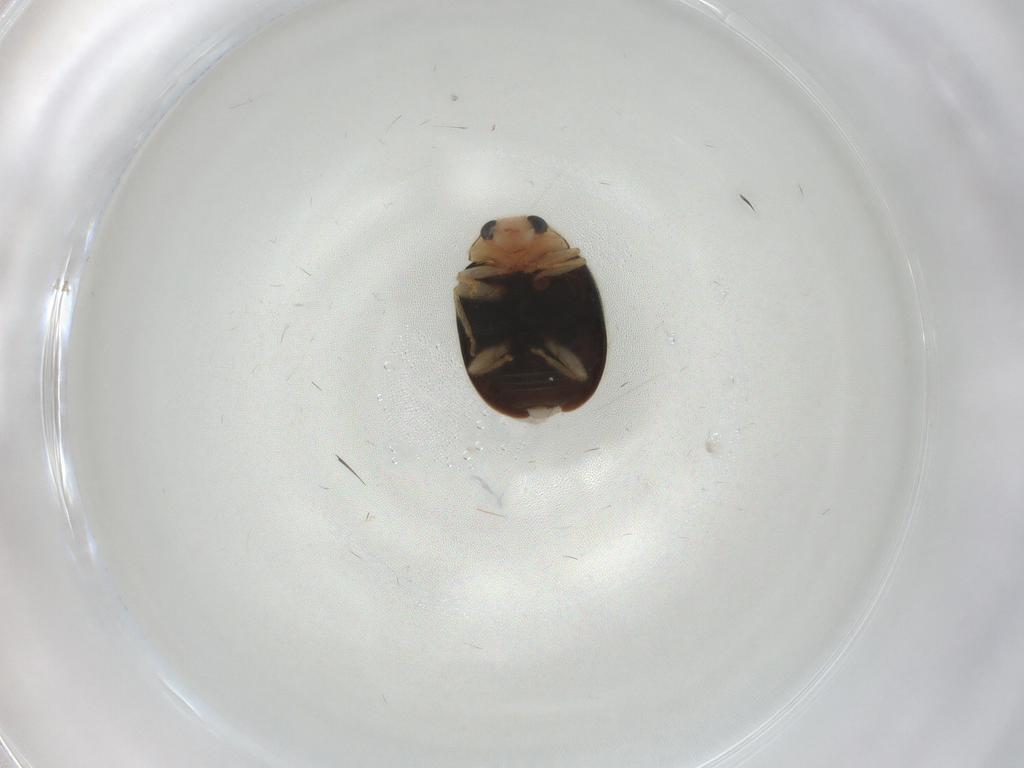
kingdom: Animalia
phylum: Arthropoda
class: Insecta
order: Coleoptera
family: Coccinellidae
